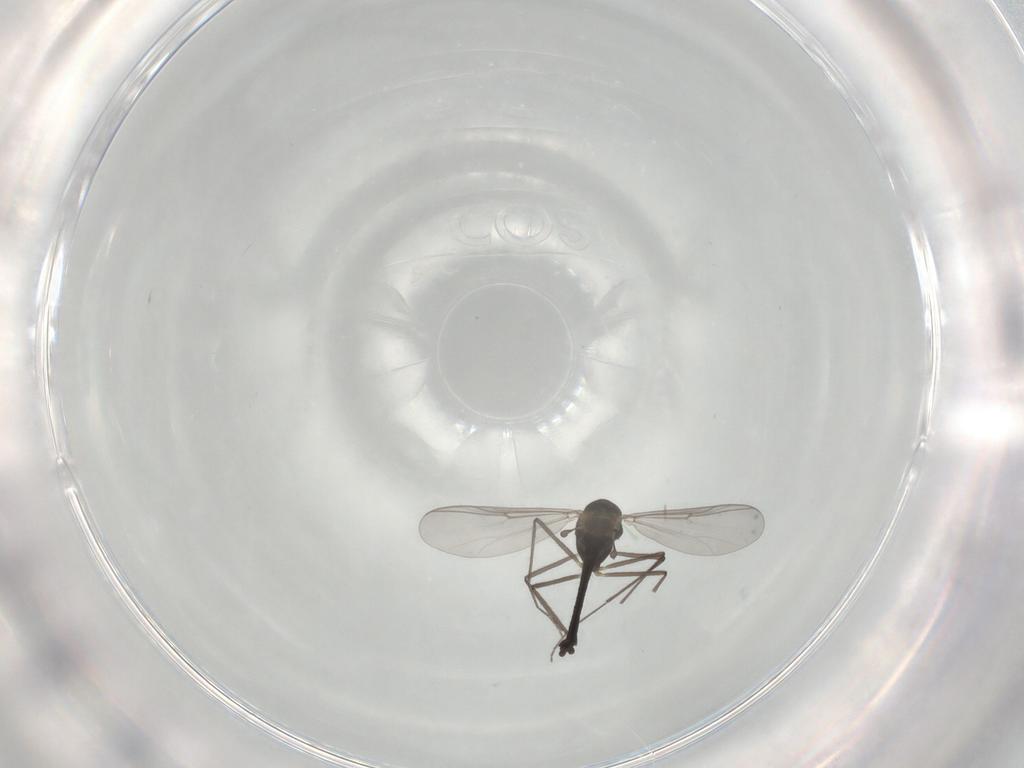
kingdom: Animalia
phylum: Arthropoda
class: Insecta
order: Diptera
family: Chironomidae
